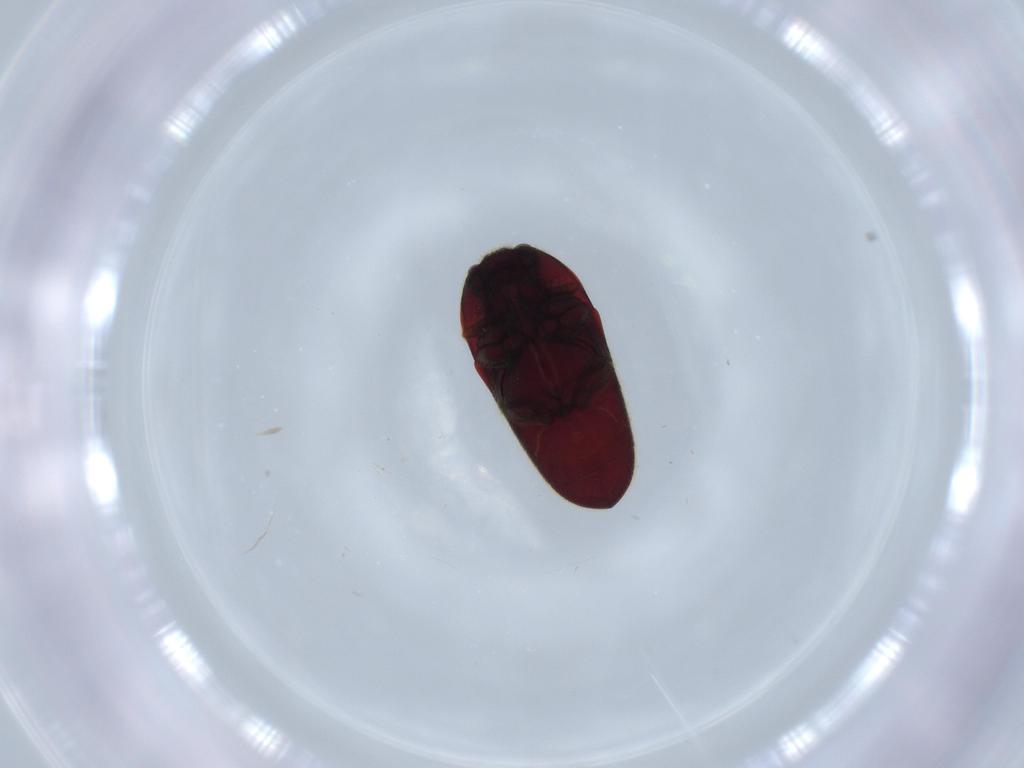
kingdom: Animalia
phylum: Arthropoda
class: Insecta
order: Coleoptera
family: Throscidae
